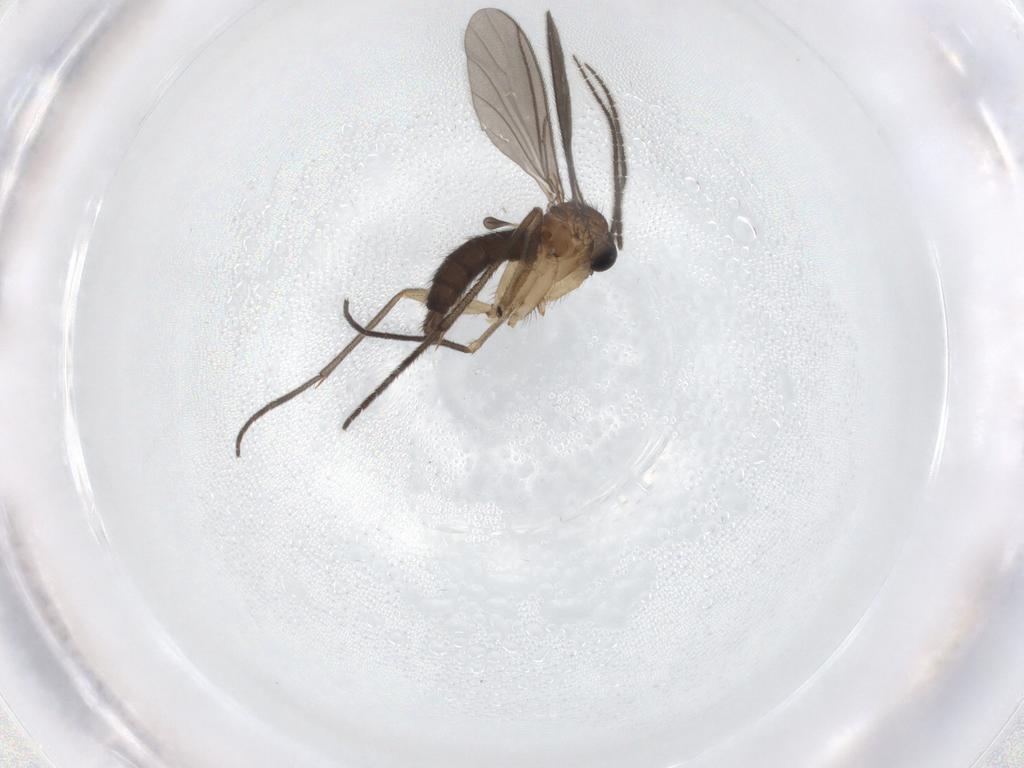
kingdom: Animalia
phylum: Arthropoda
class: Insecta
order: Diptera
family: Sciaridae
